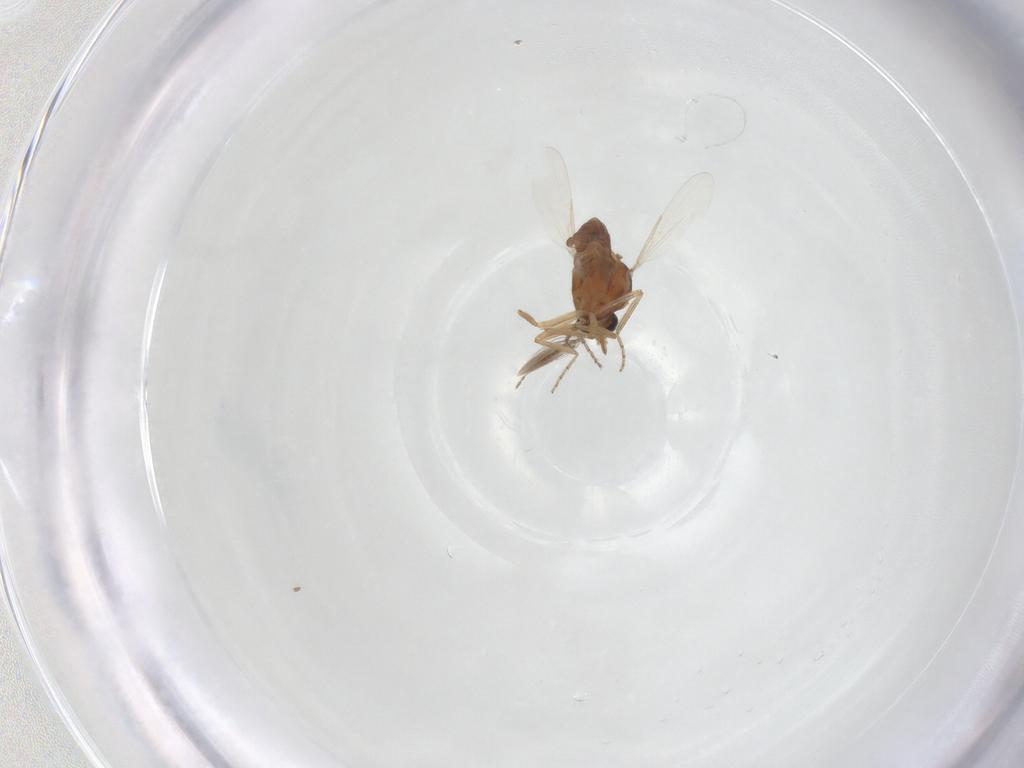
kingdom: Animalia
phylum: Arthropoda
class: Insecta
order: Diptera
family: Ceratopogonidae
